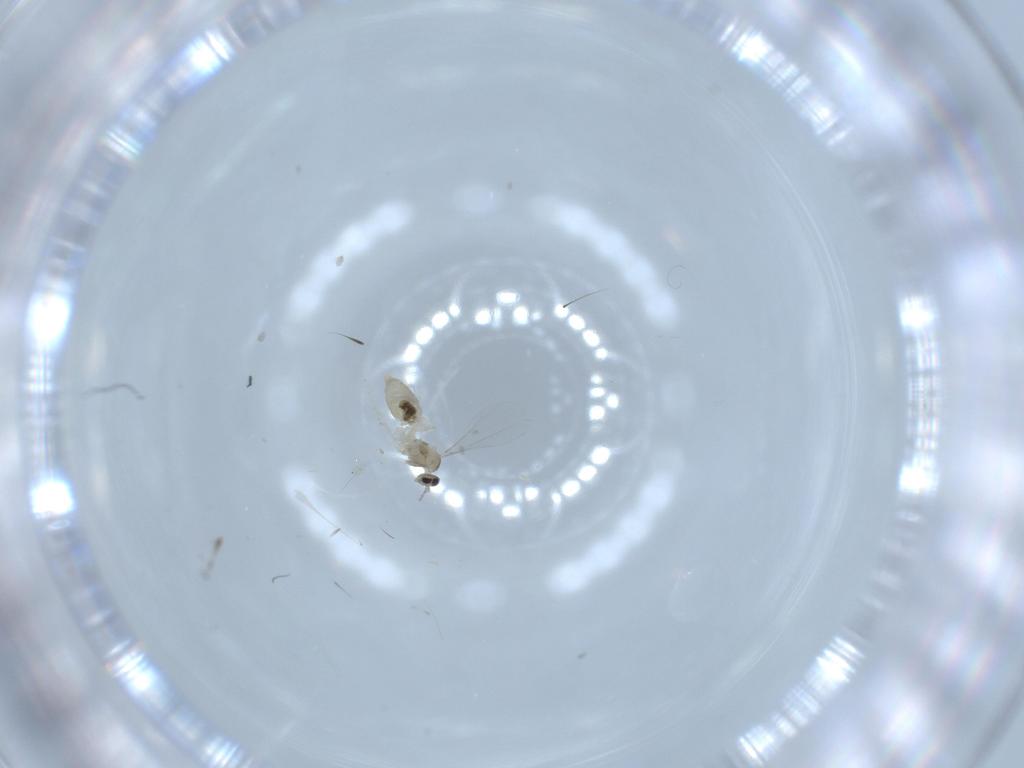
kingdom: Animalia
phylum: Arthropoda
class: Insecta
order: Diptera
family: Cecidomyiidae
